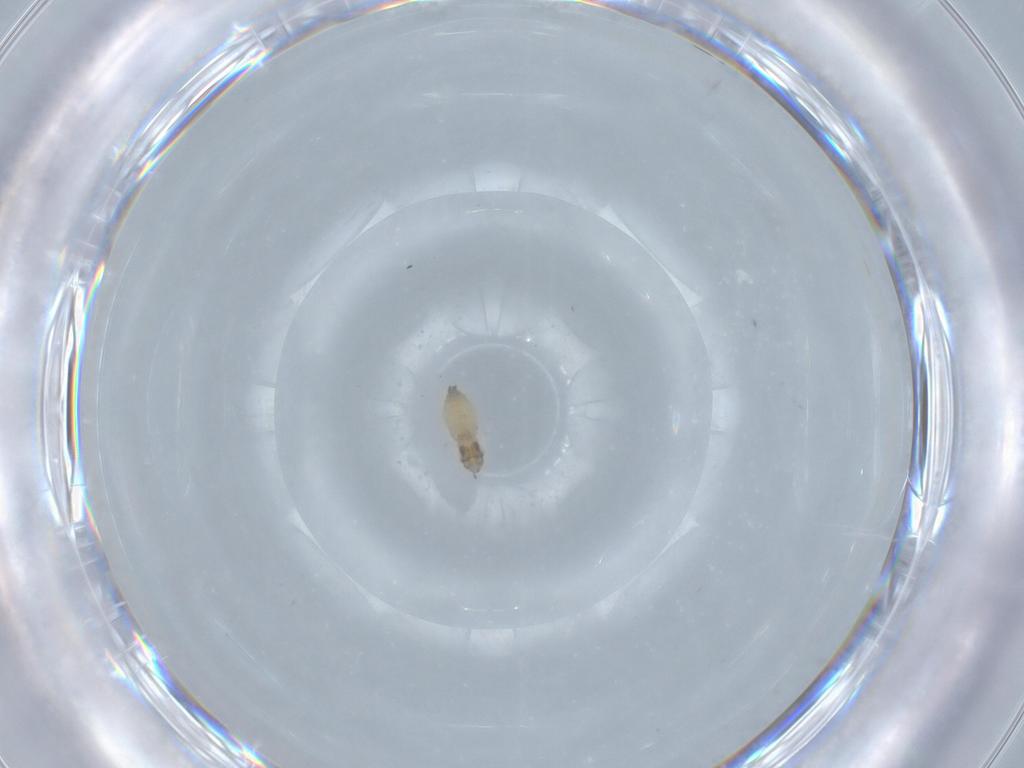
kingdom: Animalia
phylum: Arthropoda
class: Insecta
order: Diptera
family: Cecidomyiidae
